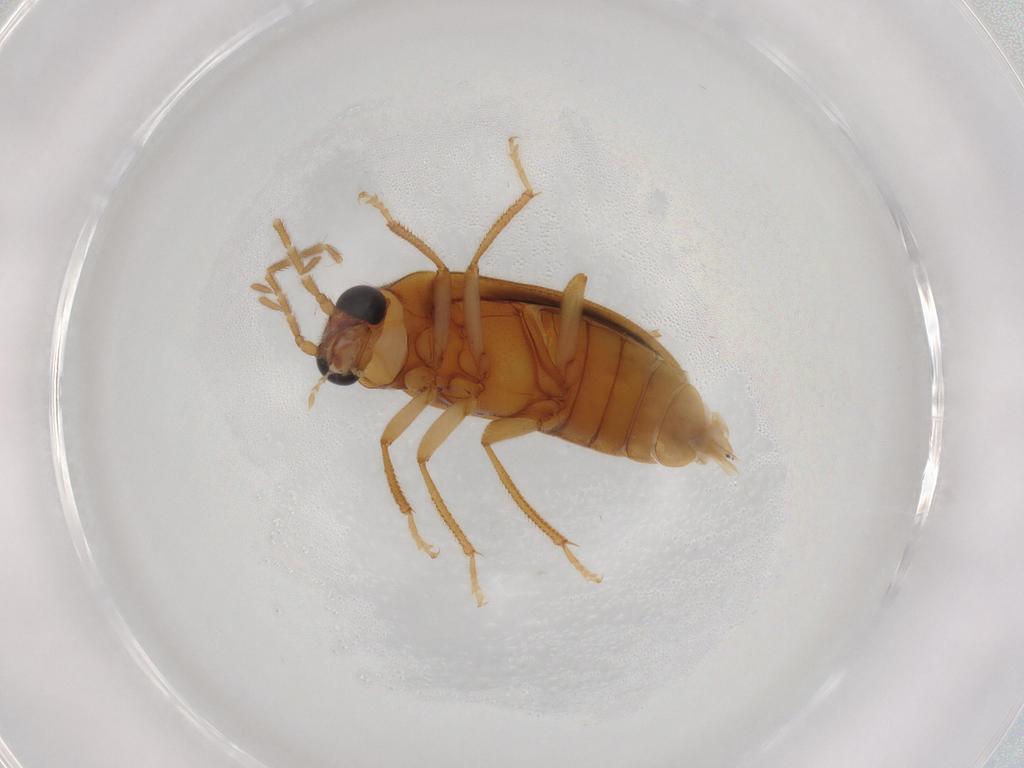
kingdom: Animalia
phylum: Arthropoda
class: Insecta
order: Coleoptera
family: Ptilodactylidae
